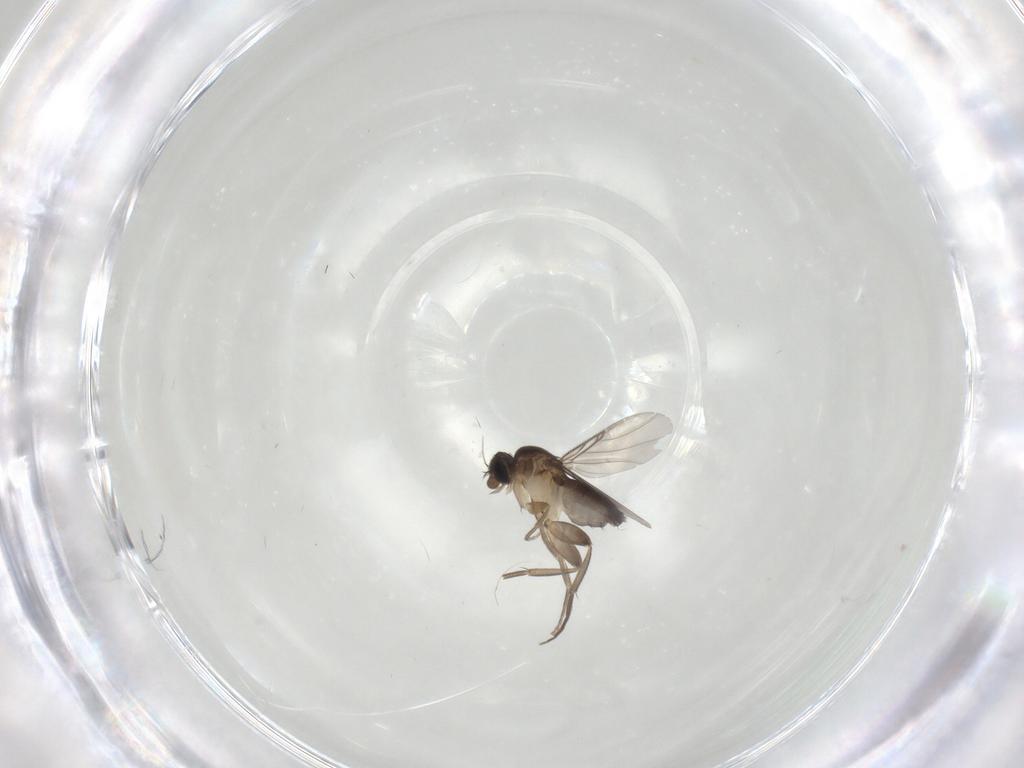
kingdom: Animalia
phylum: Arthropoda
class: Insecta
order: Diptera
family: Phoridae
